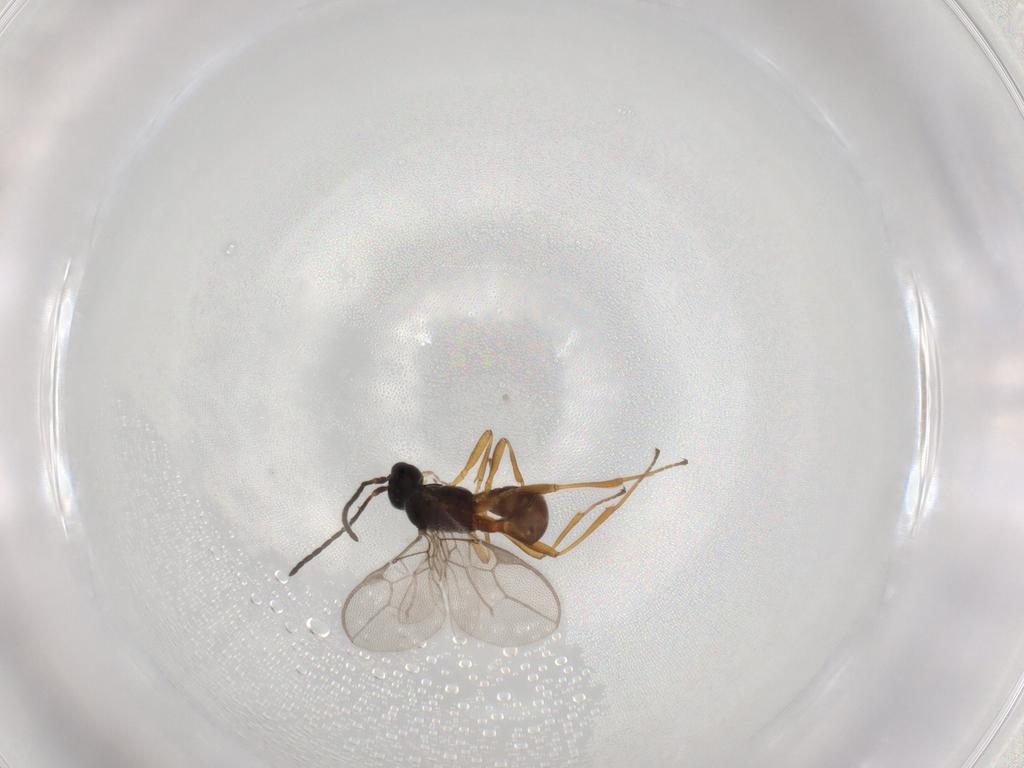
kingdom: Animalia
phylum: Arthropoda
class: Insecta
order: Hymenoptera
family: Braconidae
